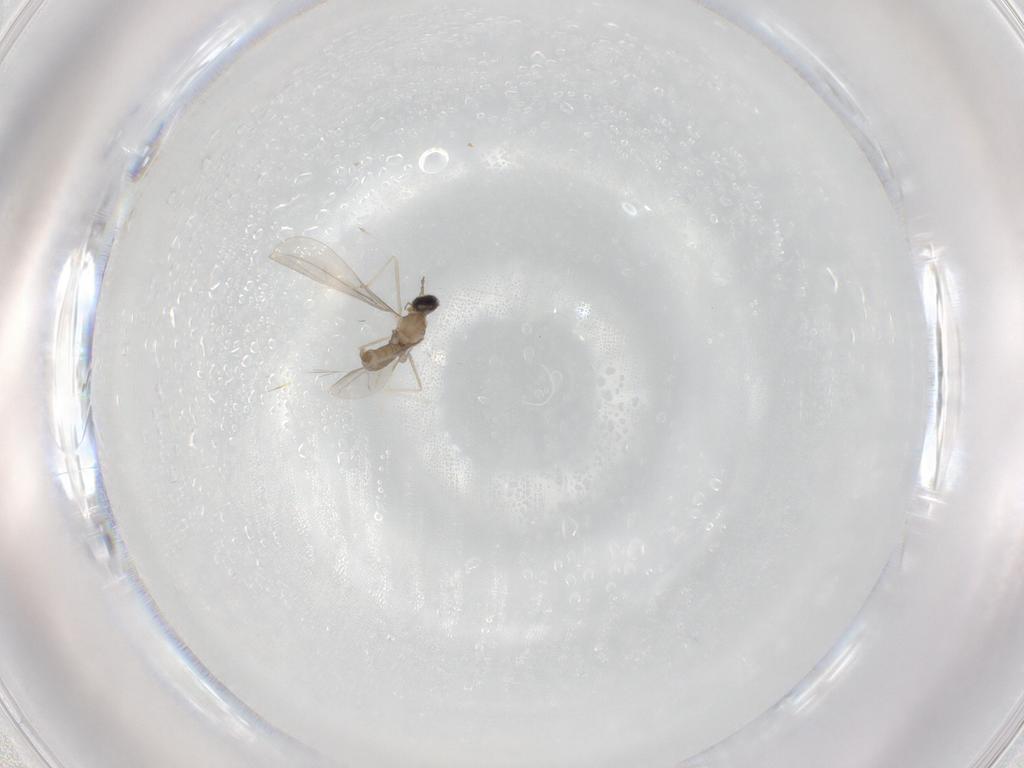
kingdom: Animalia
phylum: Arthropoda
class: Insecta
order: Diptera
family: Cecidomyiidae
